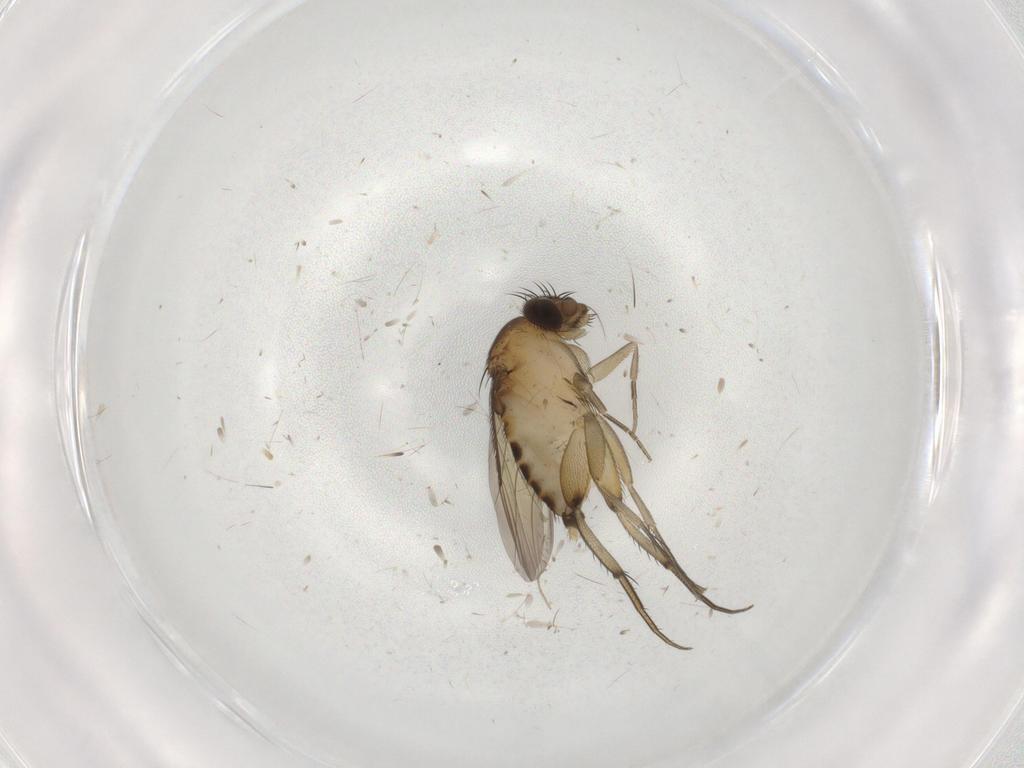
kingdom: Animalia
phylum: Arthropoda
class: Insecta
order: Diptera
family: Phoridae
